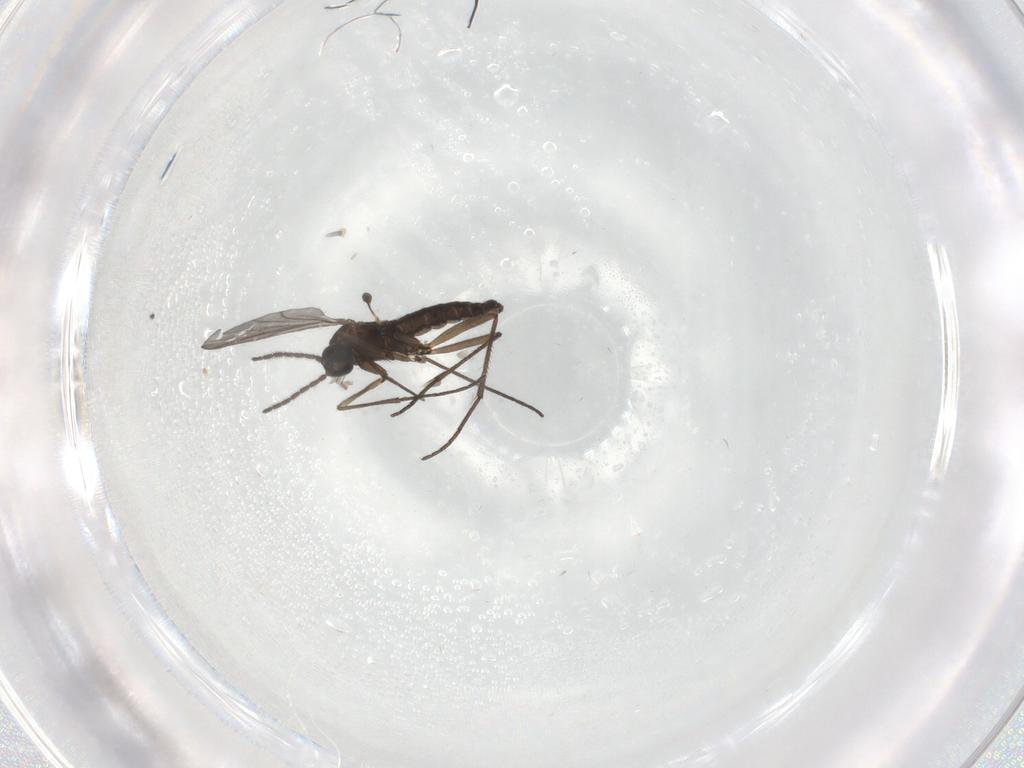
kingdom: Animalia
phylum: Arthropoda
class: Insecta
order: Diptera
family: Sciaridae
